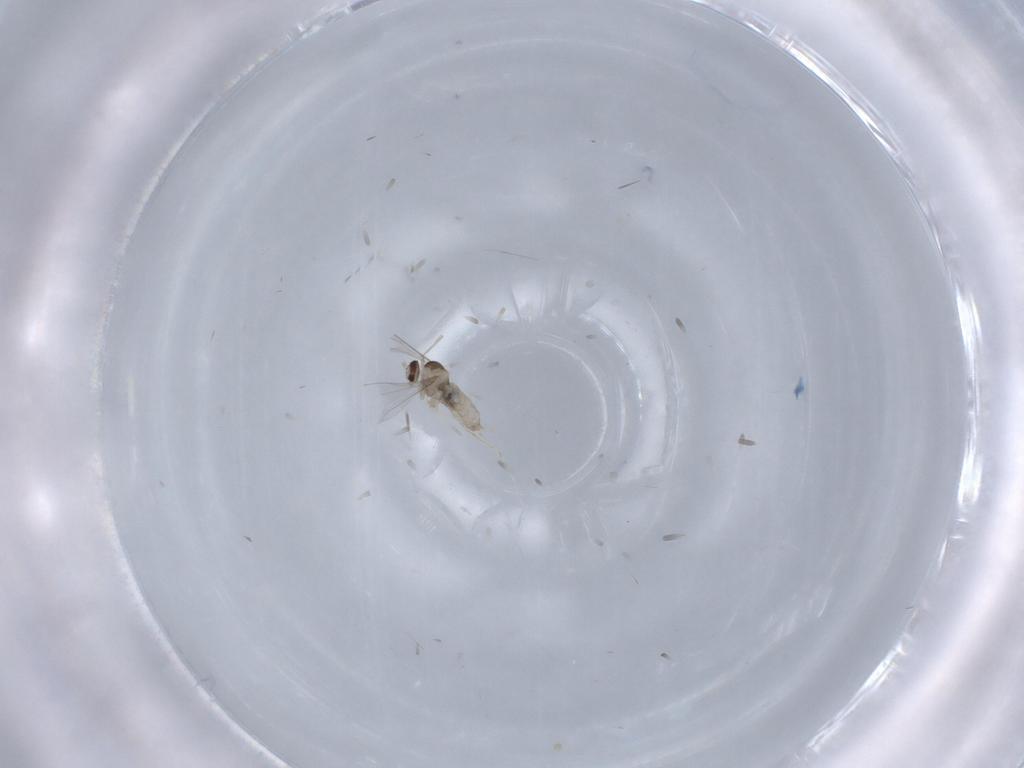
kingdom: Animalia
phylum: Arthropoda
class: Insecta
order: Diptera
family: Cecidomyiidae
